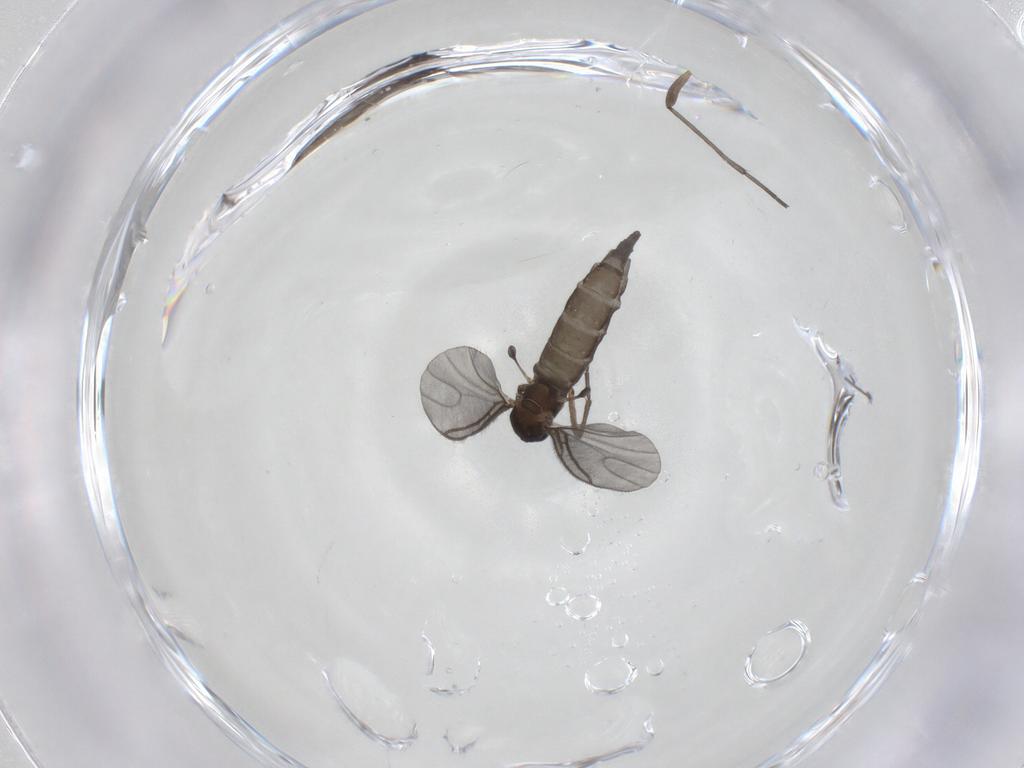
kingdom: Animalia
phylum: Arthropoda
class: Insecta
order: Diptera
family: Sciaridae
